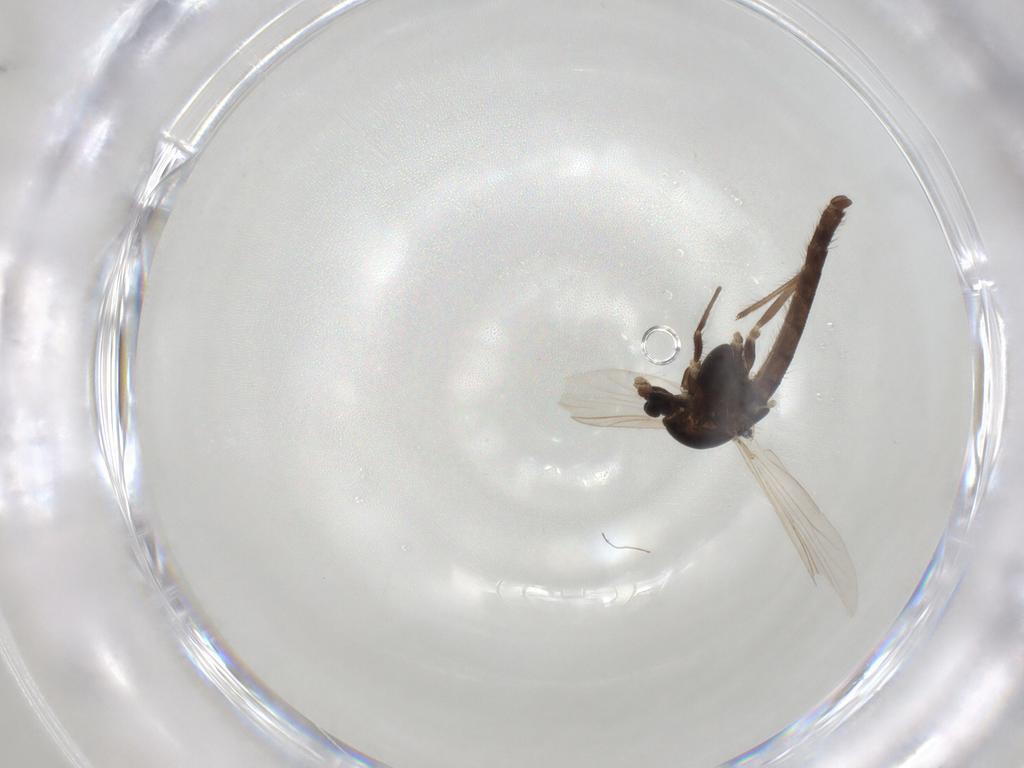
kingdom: Animalia
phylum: Arthropoda
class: Insecta
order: Diptera
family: Chironomidae
